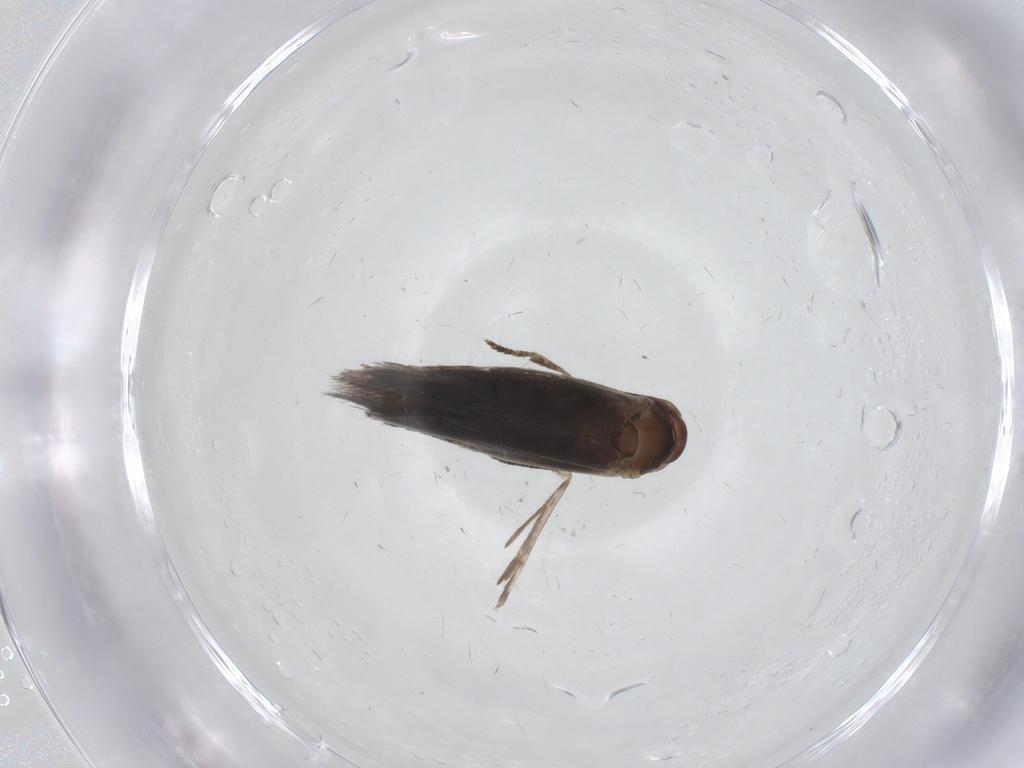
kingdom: Animalia
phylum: Arthropoda
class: Insecta
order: Lepidoptera
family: Elachistidae
